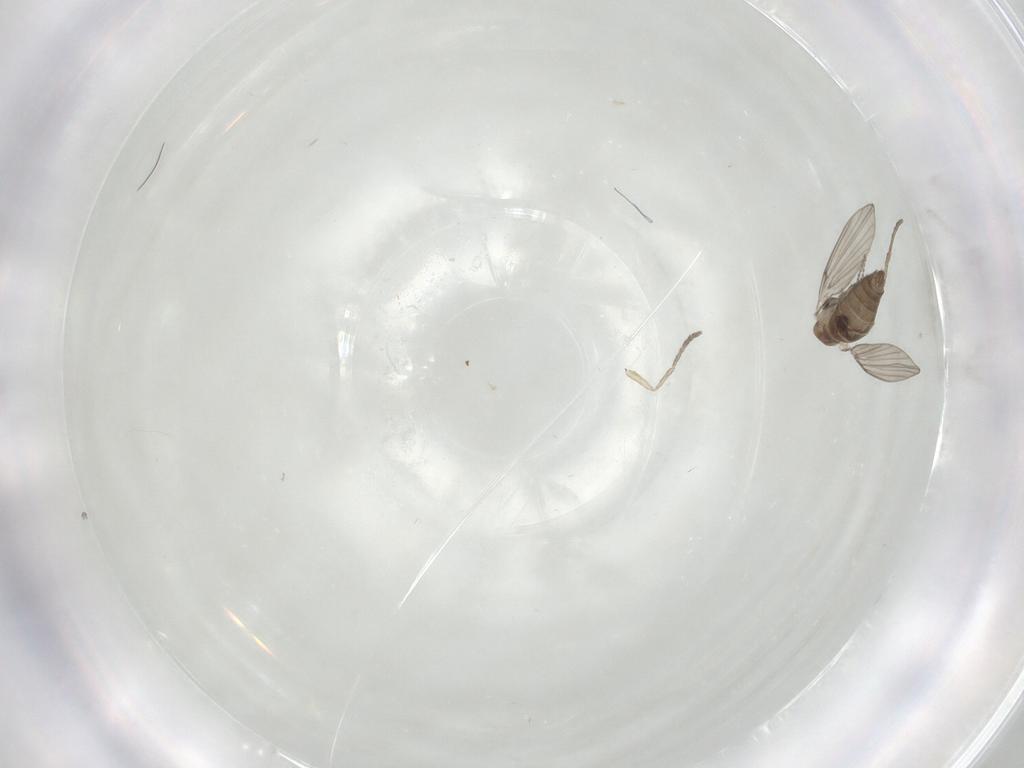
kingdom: Animalia
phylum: Arthropoda
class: Insecta
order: Diptera
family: Psychodidae
